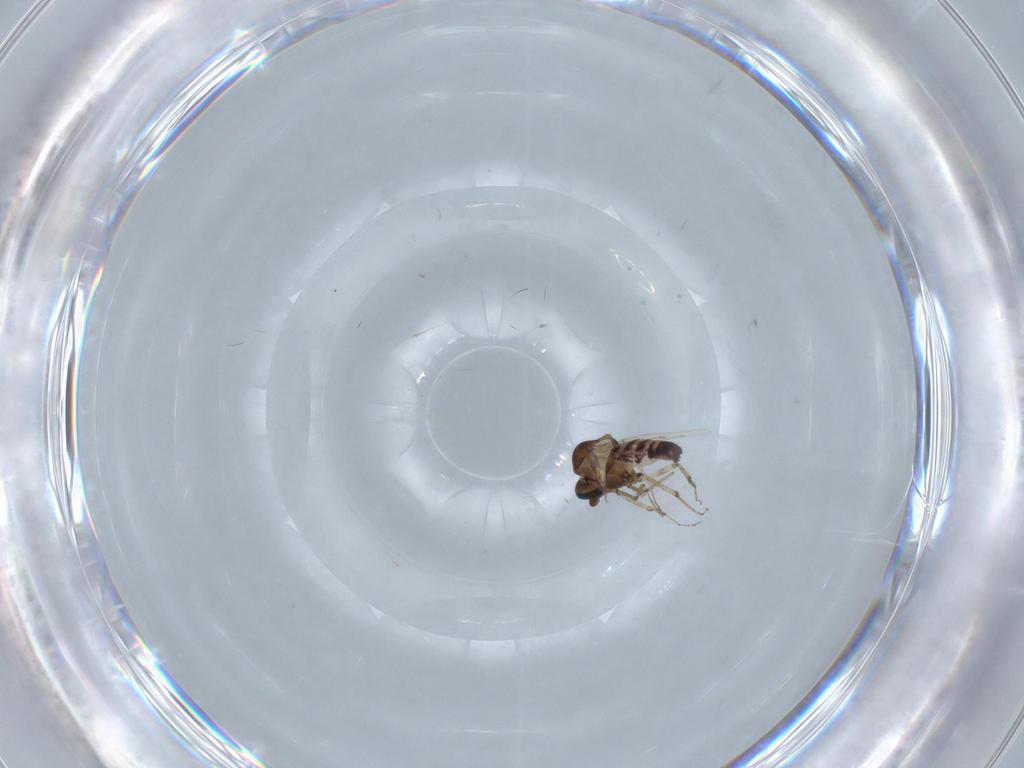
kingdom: Animalia
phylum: Arthropoda
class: Insecta
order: Diptera
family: Ceratopogonidae
